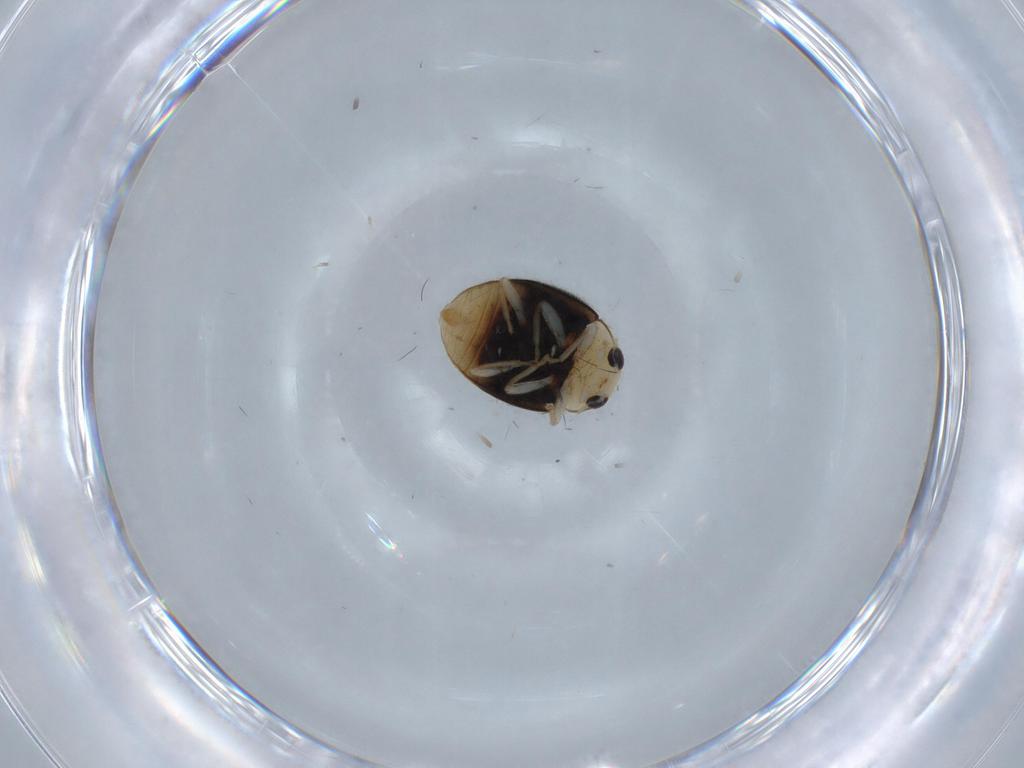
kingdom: Animalia
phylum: Arthropoda
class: Insecta
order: Coleoptera
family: Coccinellidae
